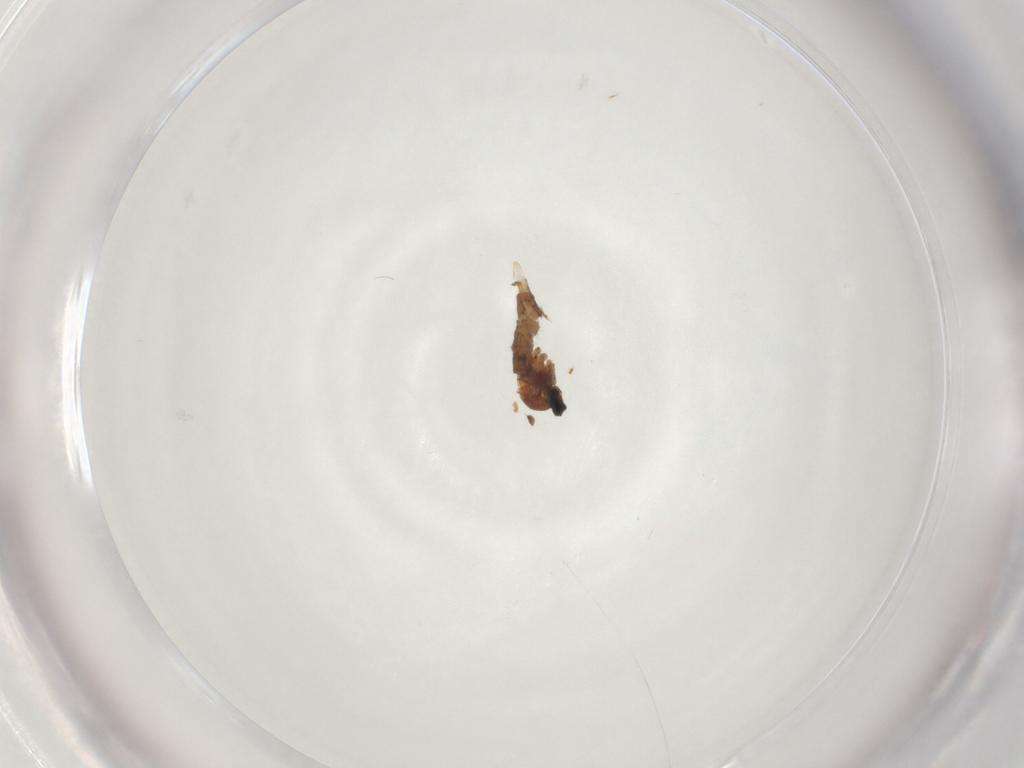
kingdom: Animalia
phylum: Arthropoda
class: Insecta
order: Diptera
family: Cecidomyiidae
